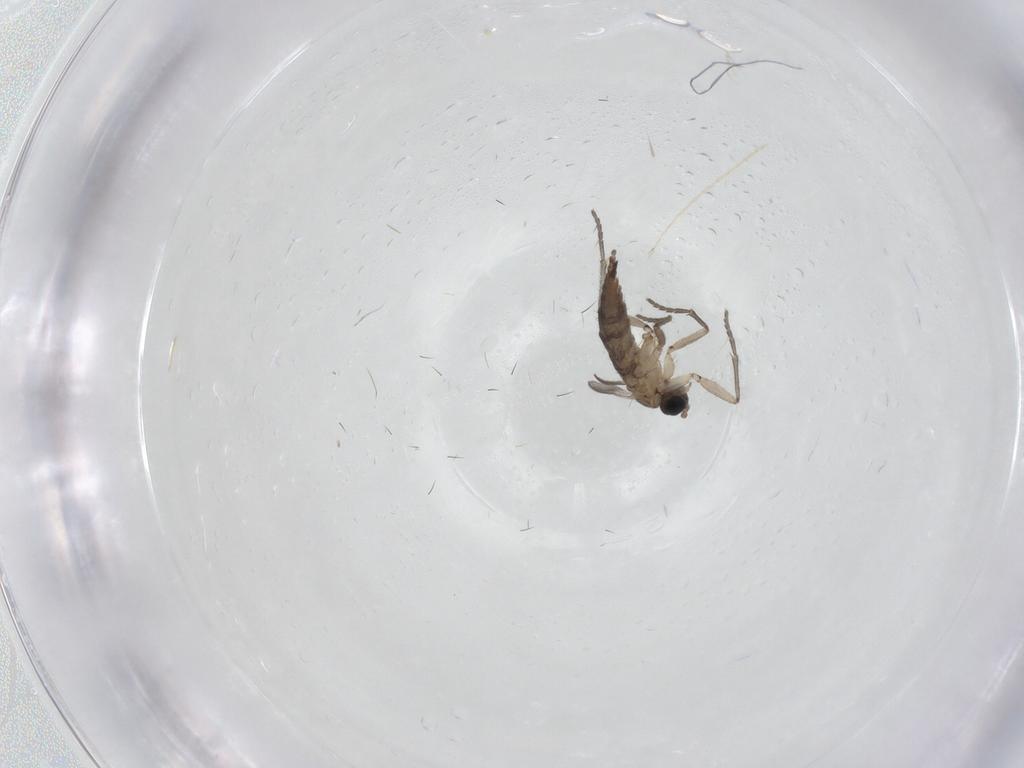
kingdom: Animalia
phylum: Arthropoda
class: Insecta
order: Diptera
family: Sciaridae
